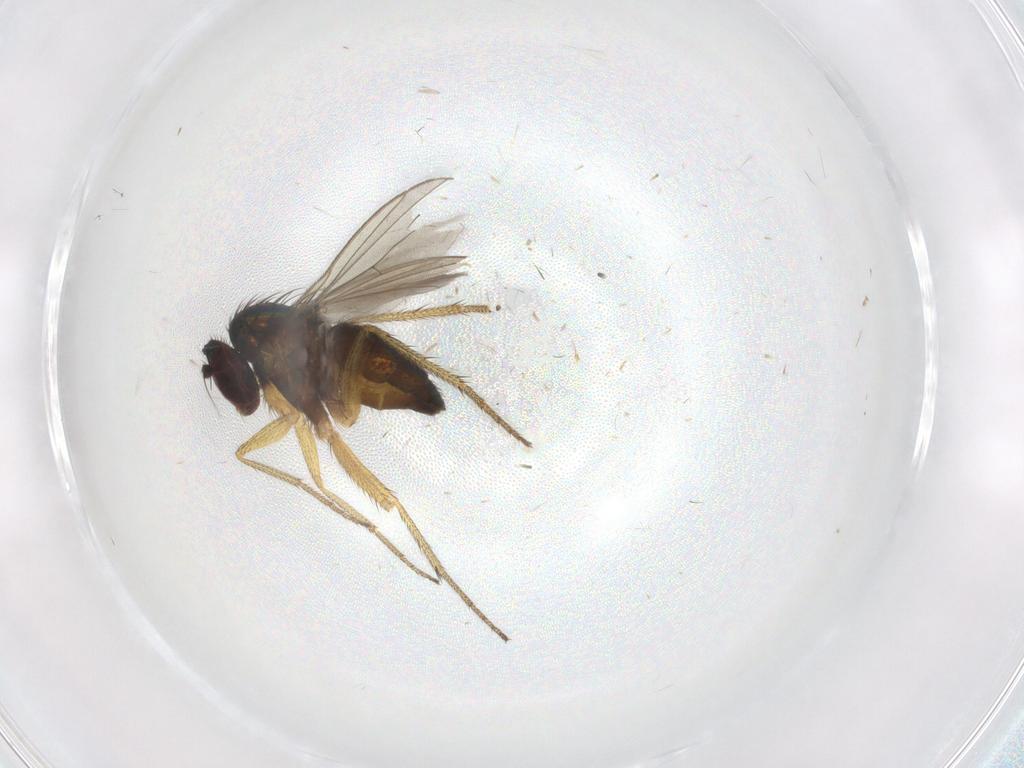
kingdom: Animalia
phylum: Arthropoda
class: Insecta
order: Diptera
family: Dolichopodidae
